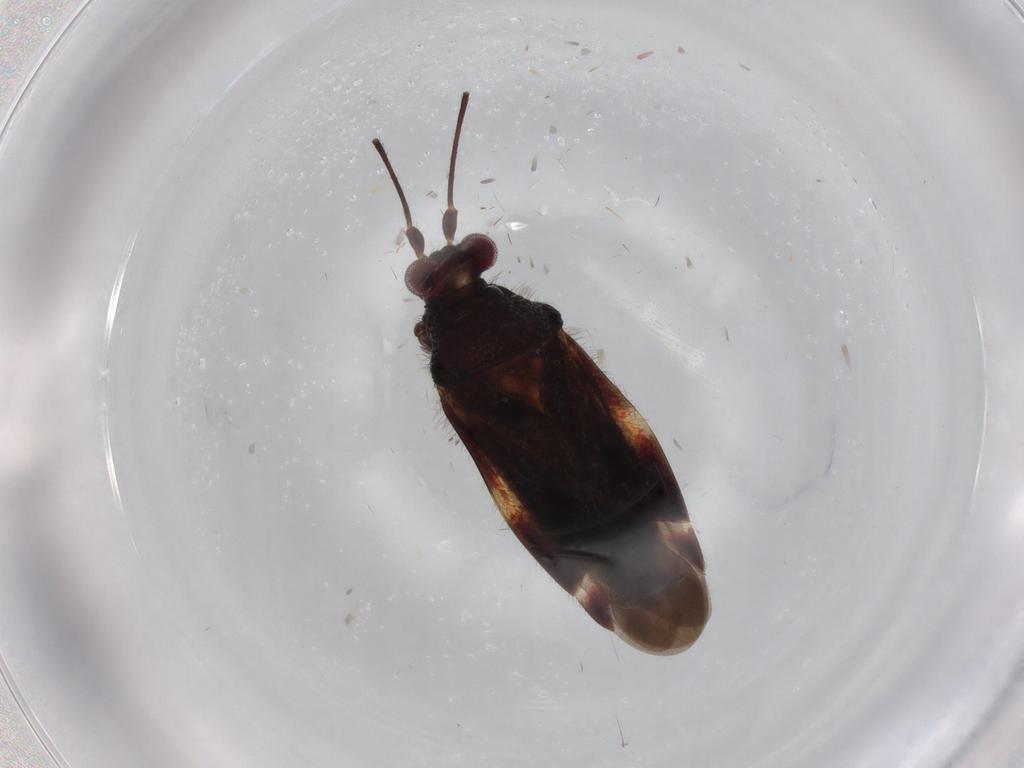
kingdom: Animalia
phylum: Arthropoda
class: Insecta
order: Hemiptera
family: Miridae
